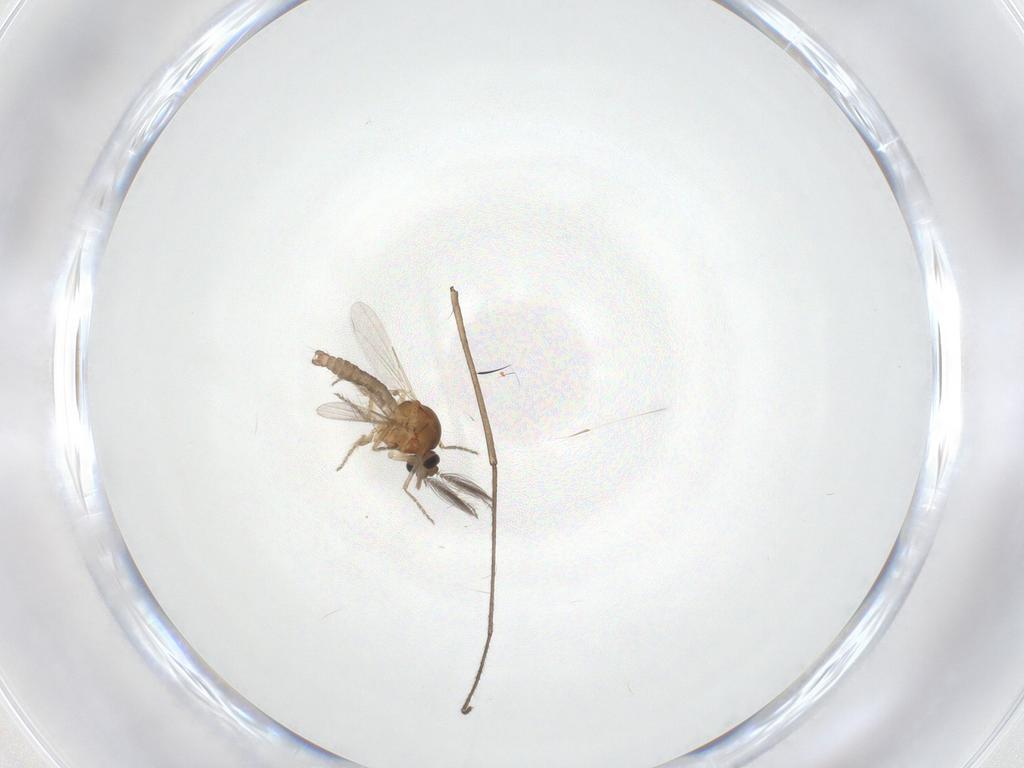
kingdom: Animalia
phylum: Arthropoda
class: Insecta
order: Diptera
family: Ceratopogonidae
